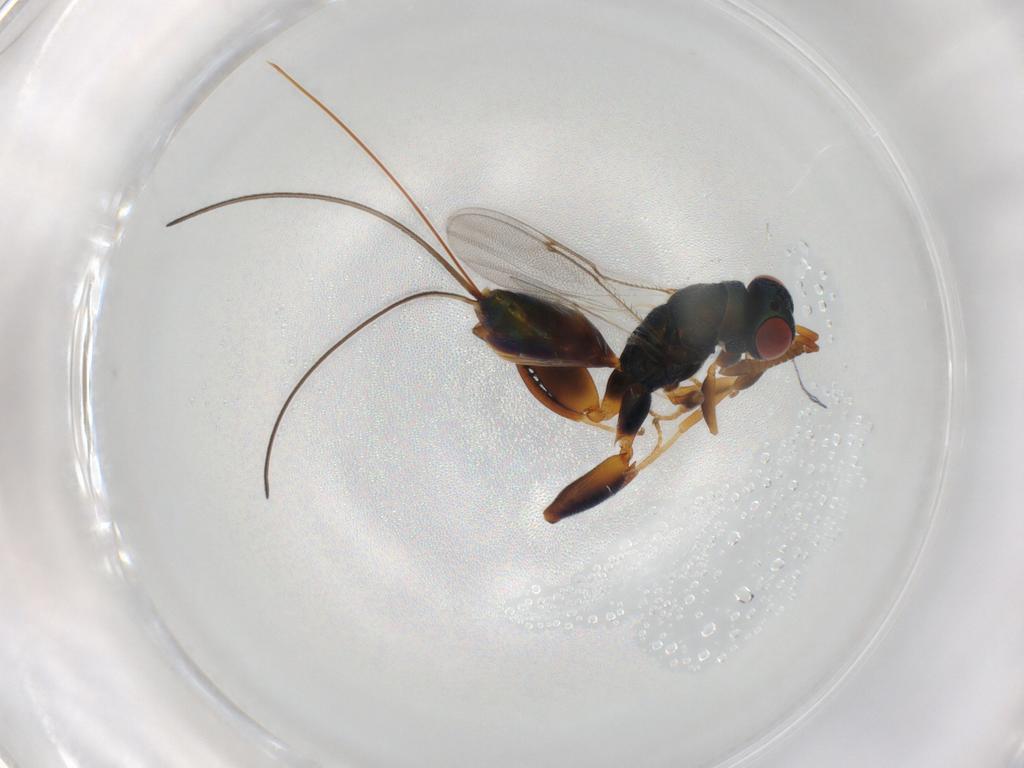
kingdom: Animalia
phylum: Arthropoda
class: Insecta
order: Hymenoptera
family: Torymidae
